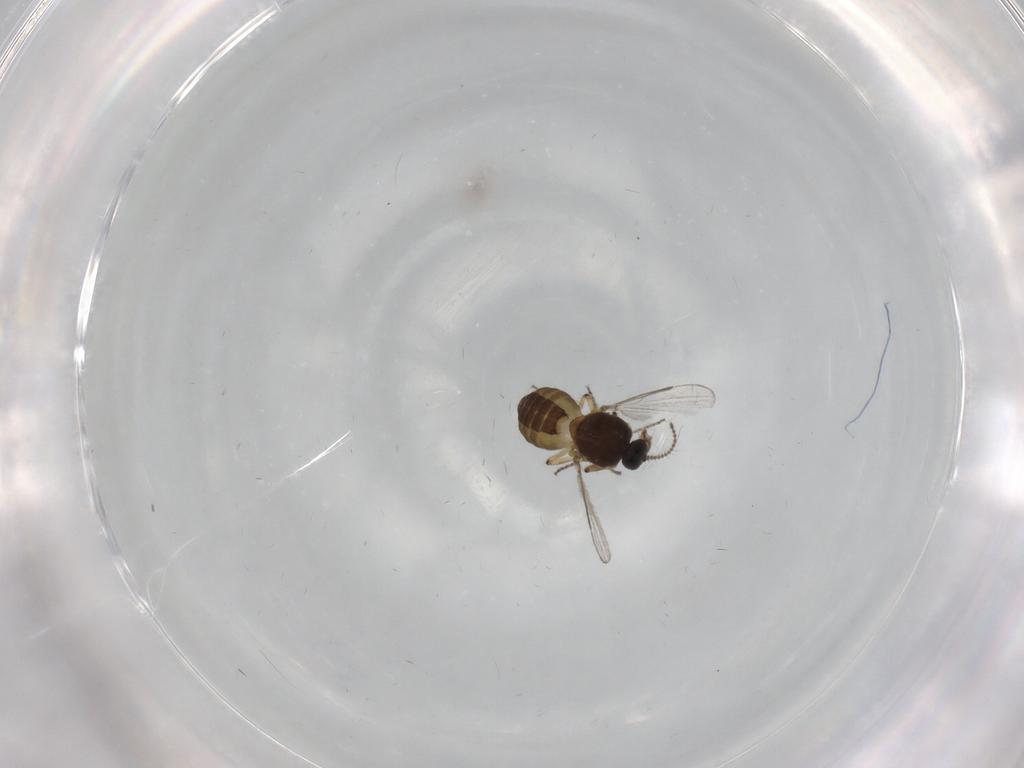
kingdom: Animalia
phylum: Arthropoda
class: Insecta
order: Diptera
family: Ceratopogonidae
